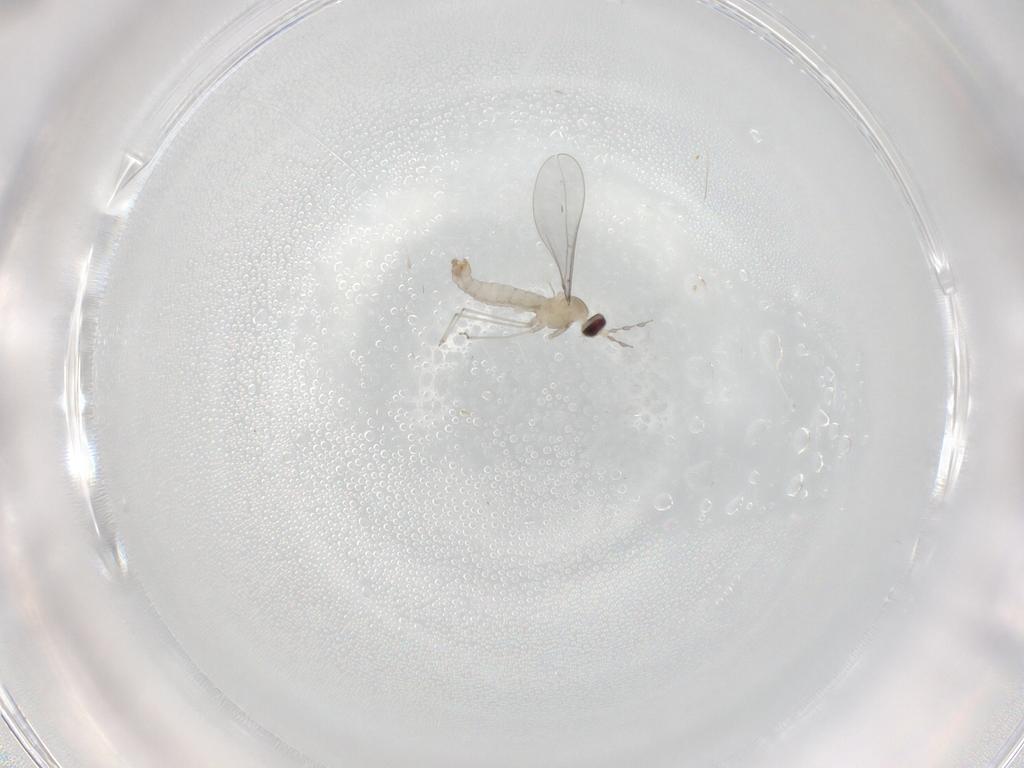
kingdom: Animalia
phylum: Arthropoda
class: Insecta
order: Diptera
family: Cecidomyiidae
